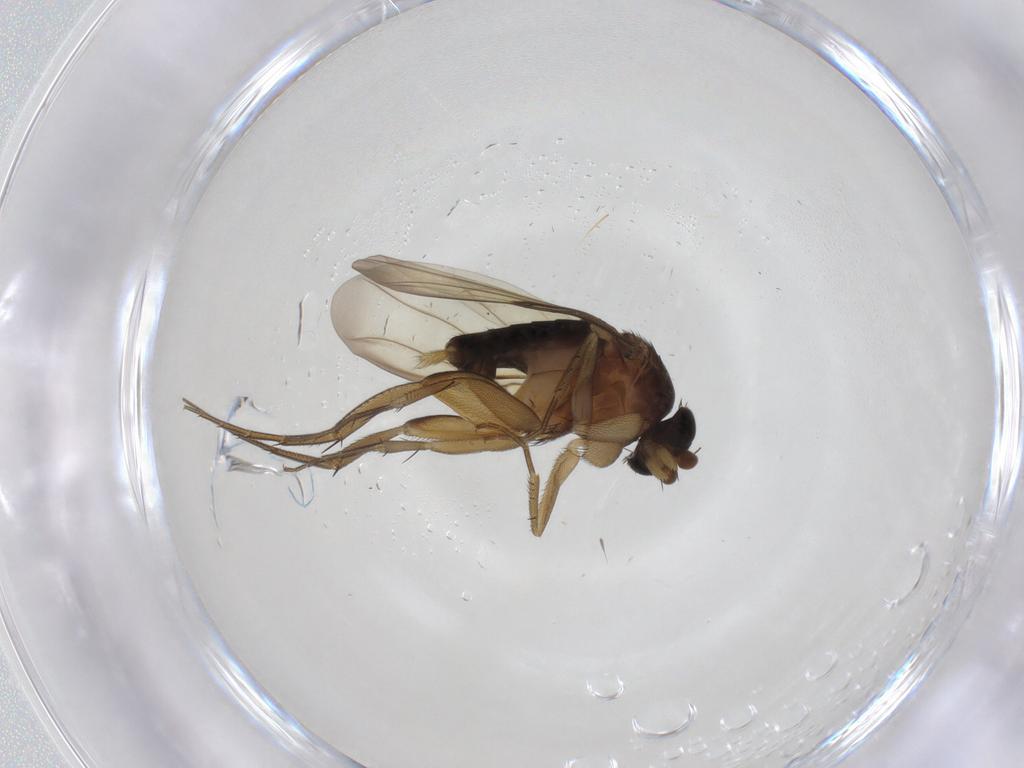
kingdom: Animalia
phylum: Arthropoda
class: Insecta
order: Diptera
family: Phoridae
